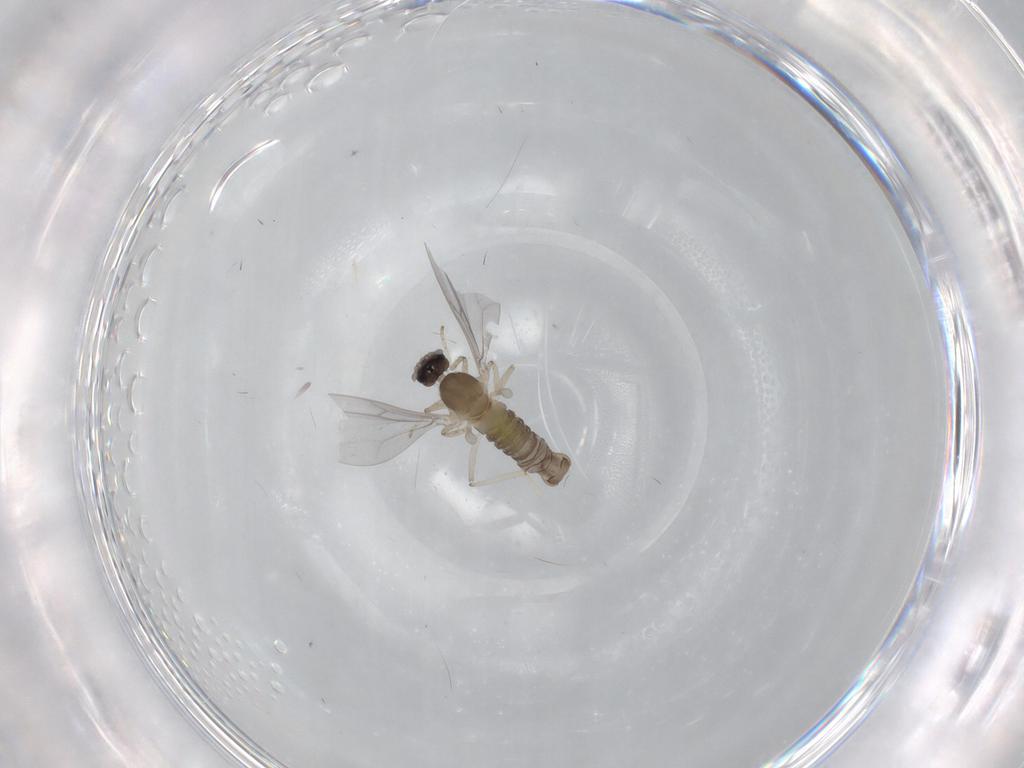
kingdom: Animalia
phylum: Arthropoda
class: Insecta
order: Diptera
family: Cecidomyiidae
